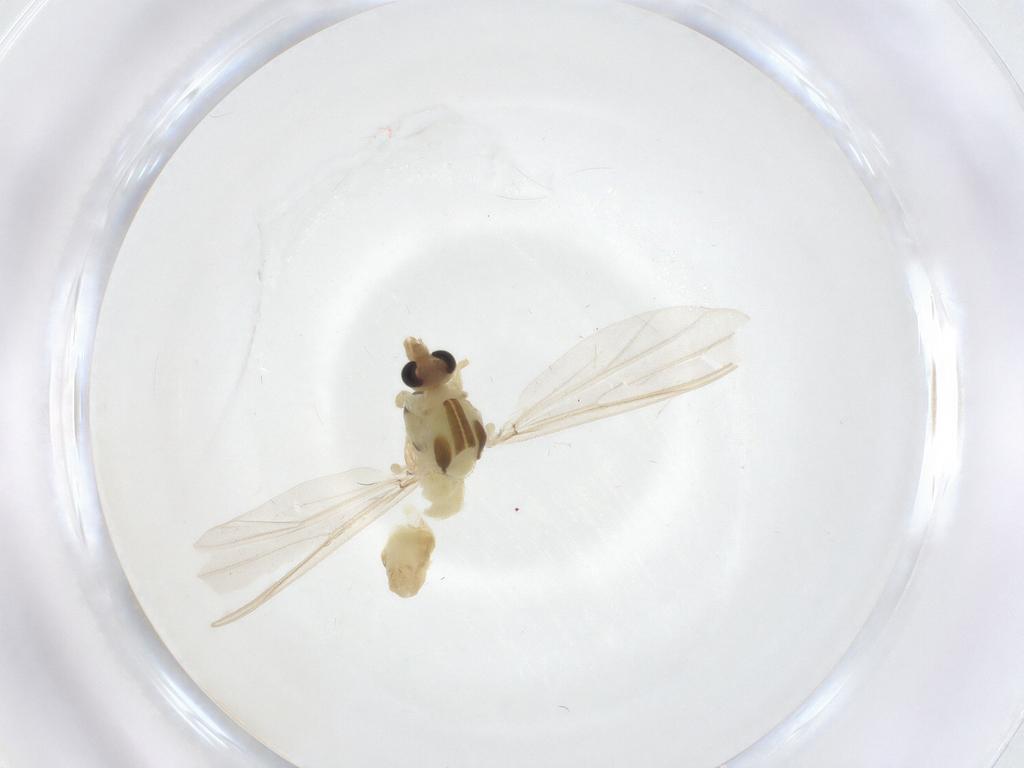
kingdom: Animalia
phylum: Arthropoda
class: Insecta
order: Diptera
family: Chironomidae
